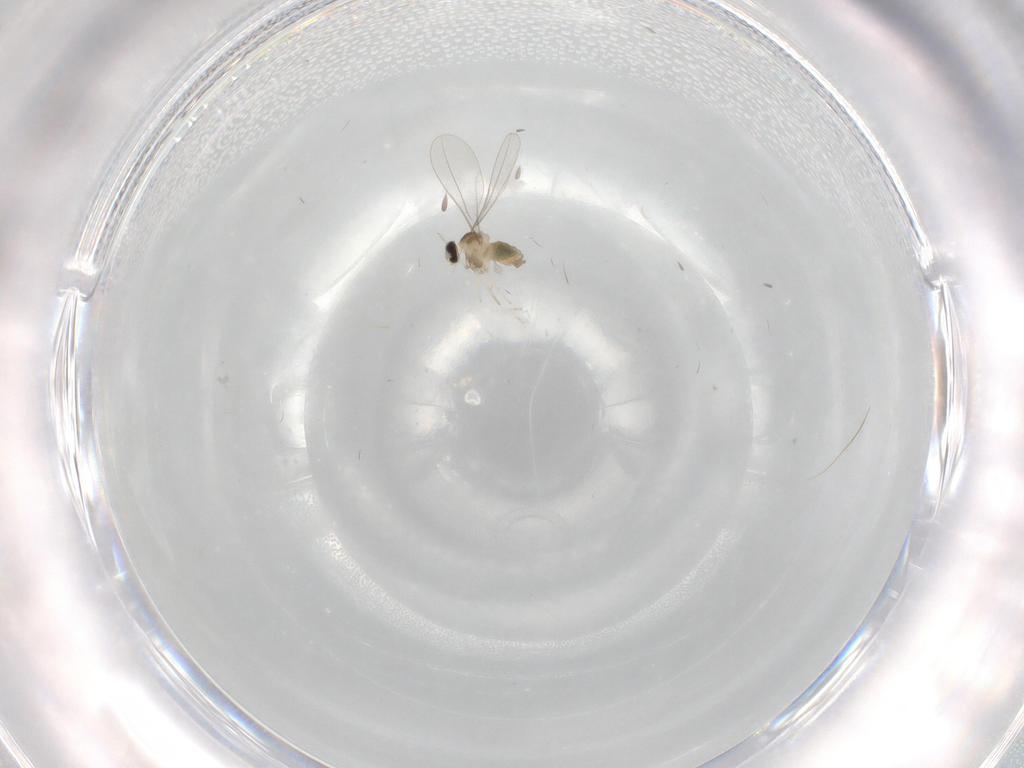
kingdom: Animalia
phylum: Arthropoda
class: Insecta
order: Diptera
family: Cecidomyiidae
